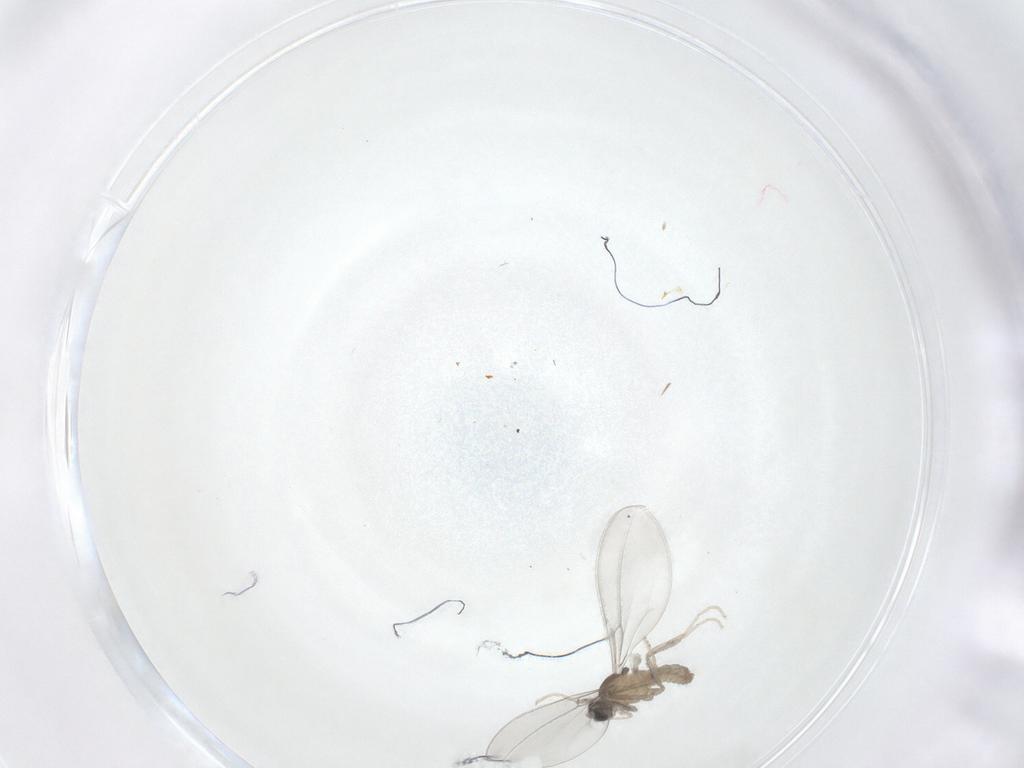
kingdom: Animalia
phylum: Arthropoda
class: Insecta
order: Diptera
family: Cecidomyiidae
